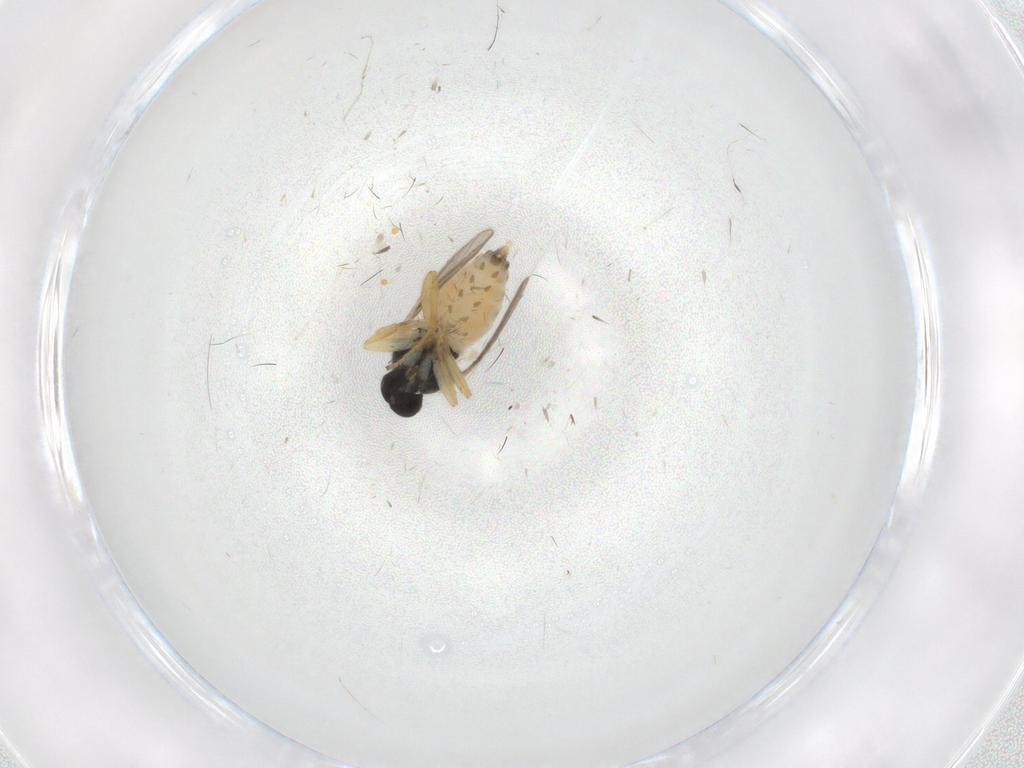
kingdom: Animalia
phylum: Arthropoda
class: Insecta
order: Diptera
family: Hybotidae
